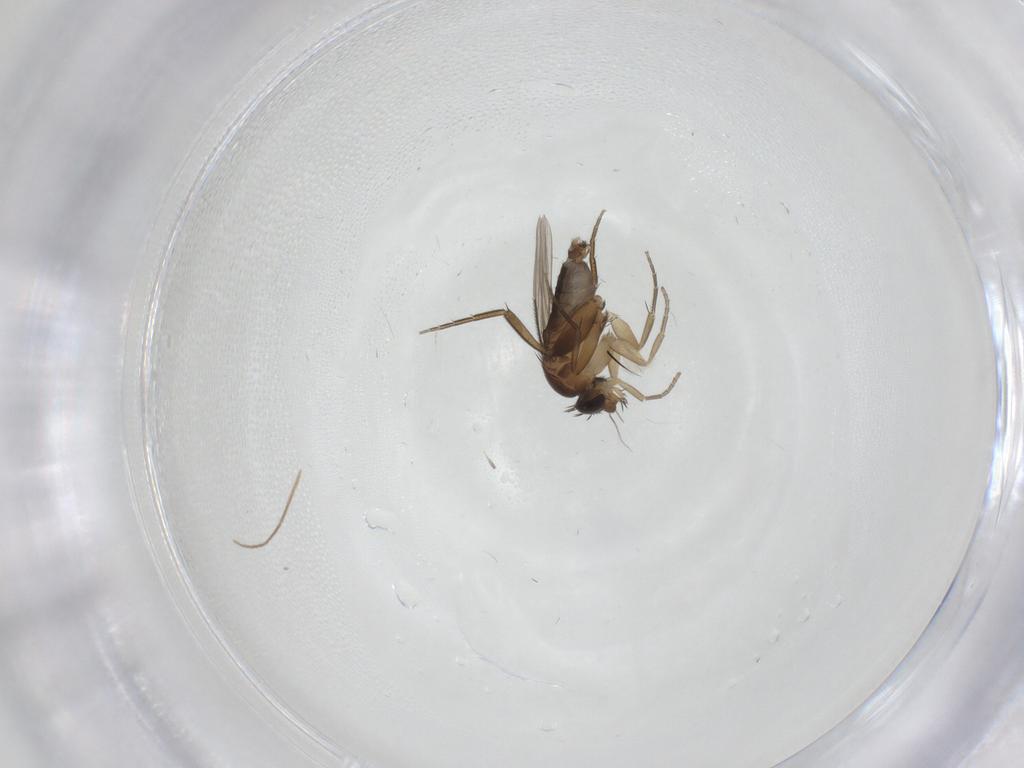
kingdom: Animalia
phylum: Arthropoda
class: Insecta
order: Diptera
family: Phoridae
